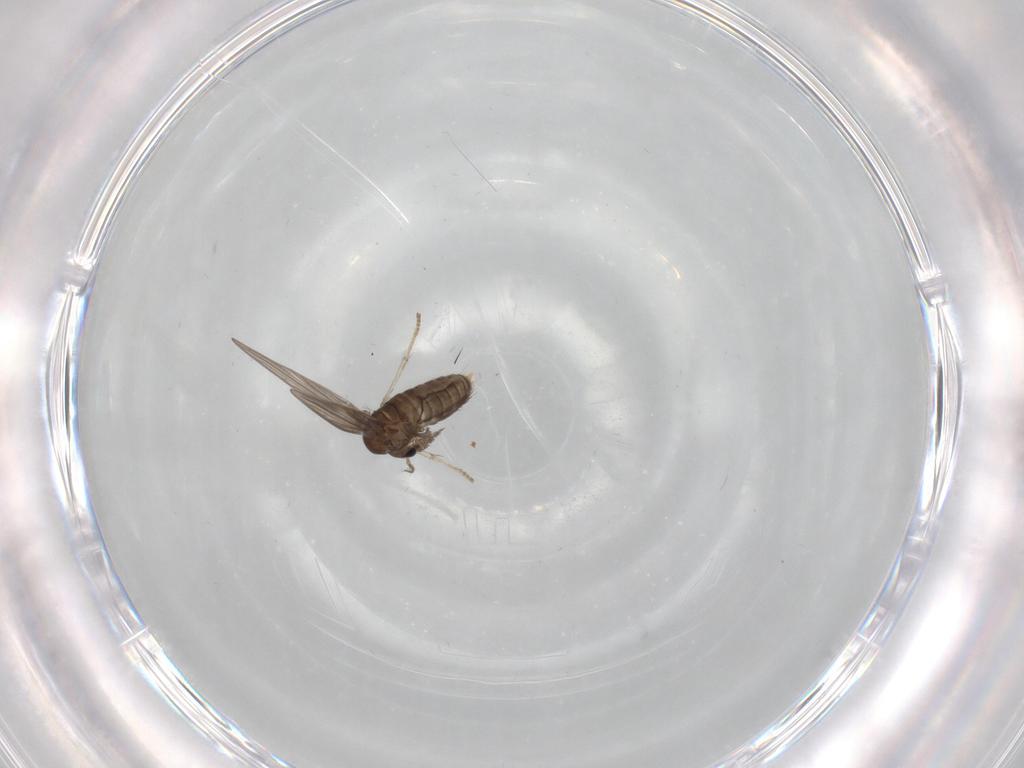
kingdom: Animalia
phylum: Arthropoda
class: Insecta
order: Diptera
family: Psychodidae
